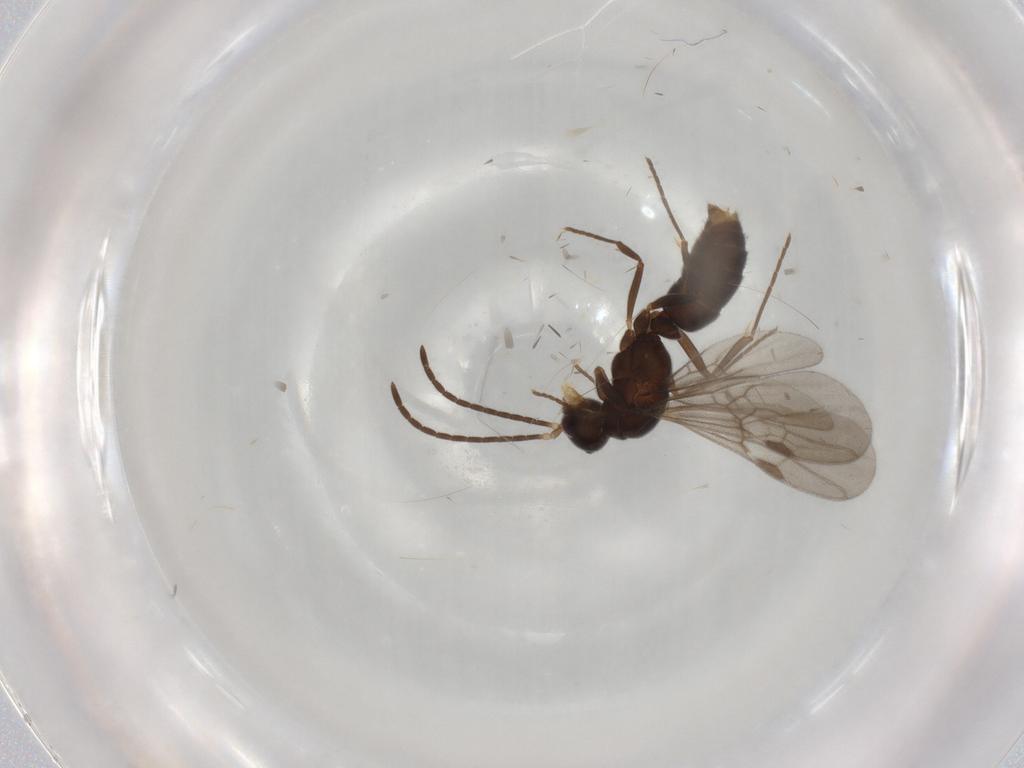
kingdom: Animalia
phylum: Arthropoda
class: Insecta
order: Hymenoptera
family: Formicidae
